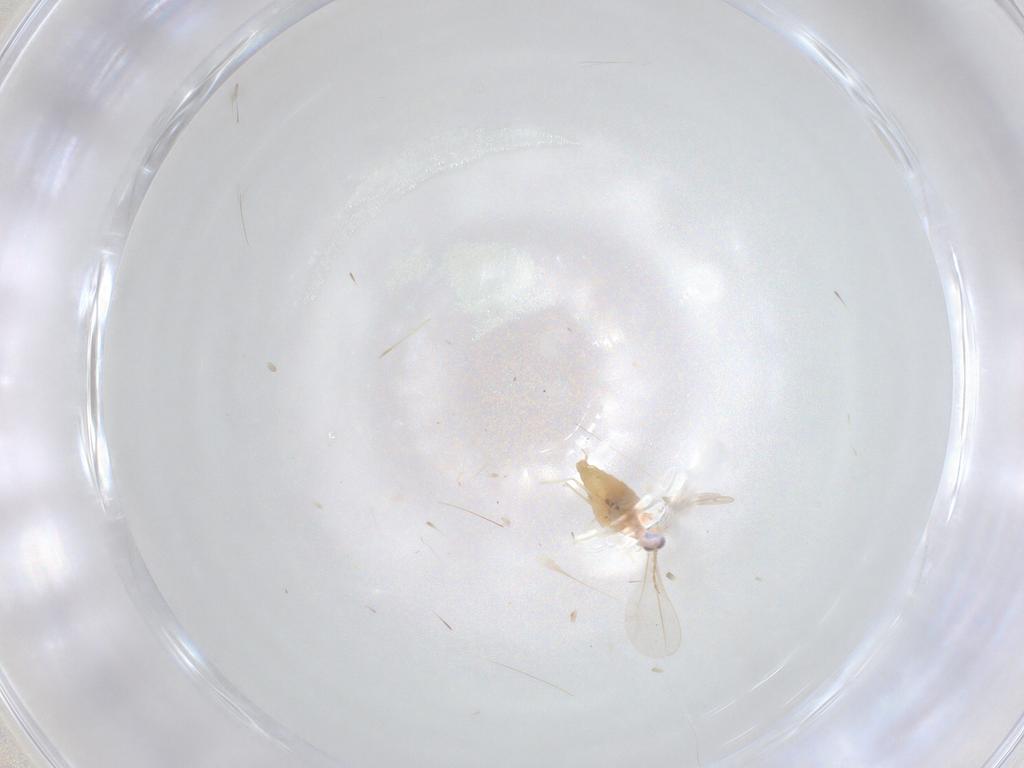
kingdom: Animalia
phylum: Arthropoda
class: Insecta
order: Diptera
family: Cecidomyiidae
